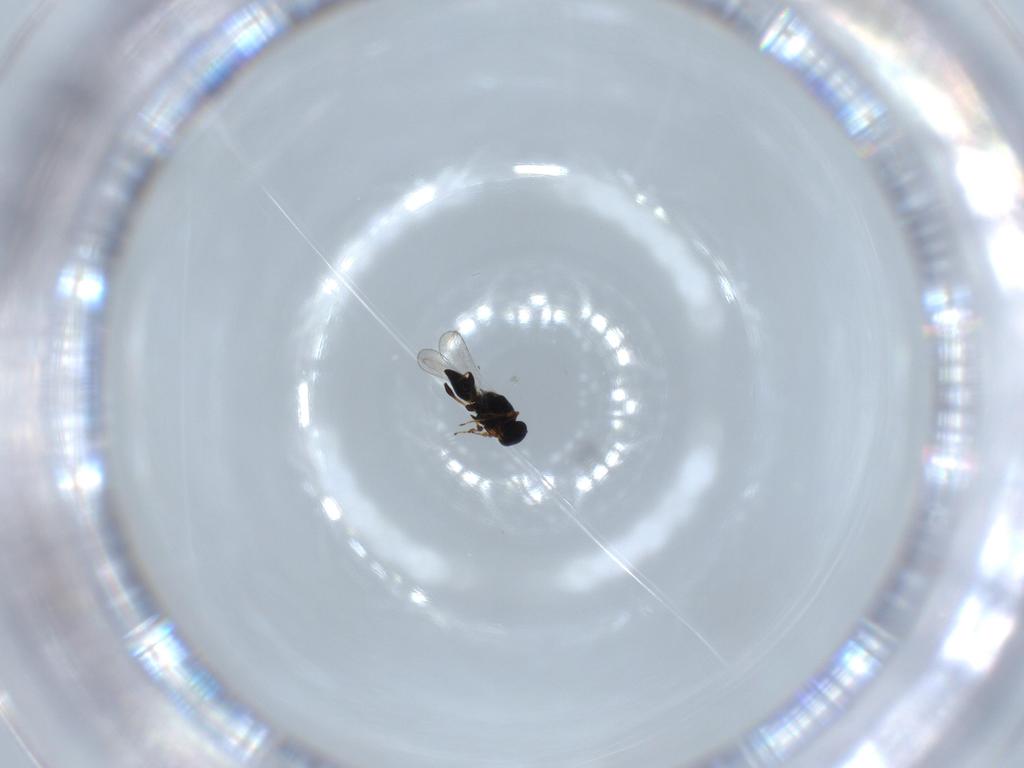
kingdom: Animalia
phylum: Arthropoda
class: Insecta
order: Hymenoptera
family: Platygastridae
